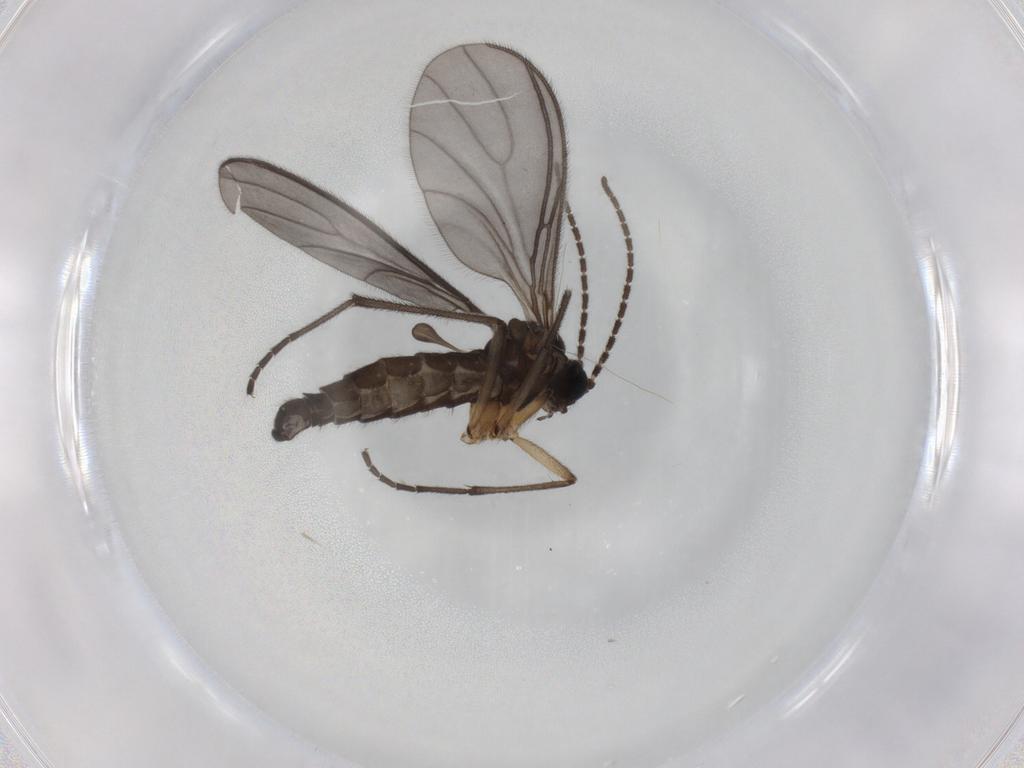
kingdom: Animalia
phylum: Arthropoda
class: Insecta
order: Diptera
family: Sciaridae
